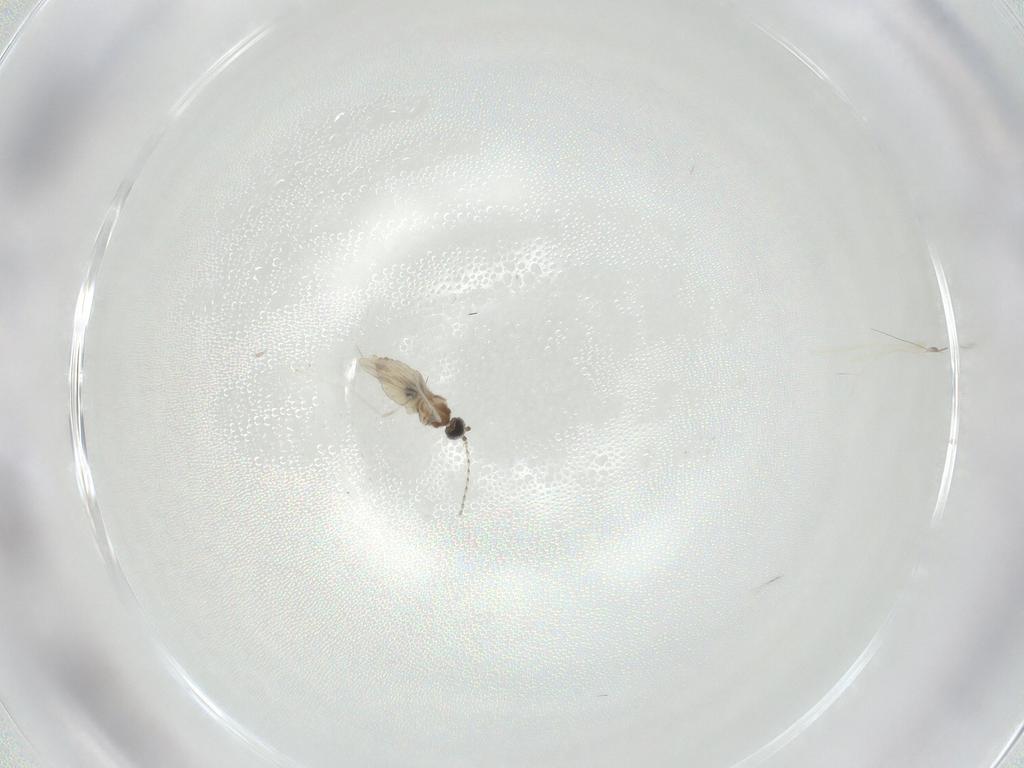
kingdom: Animalia
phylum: Arthropoda
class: Insecta
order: Diptera
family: Cecidomyiidae
